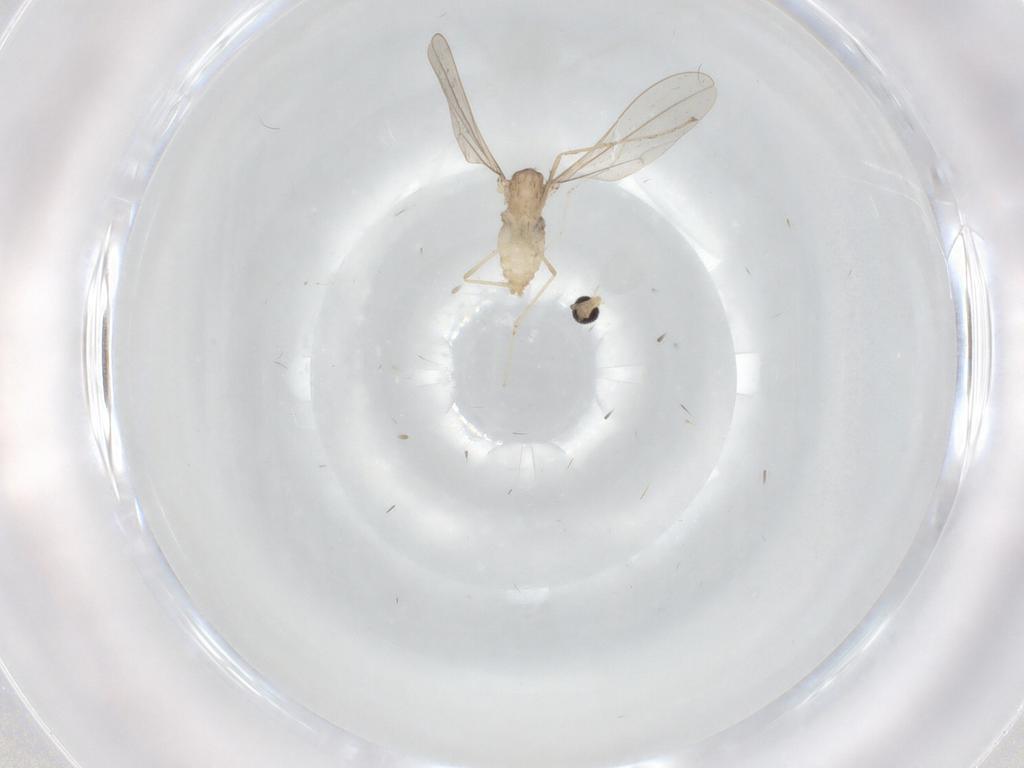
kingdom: Animalia
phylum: Arthropoda
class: Insecta
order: Diptera
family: Cecidomyiidae
